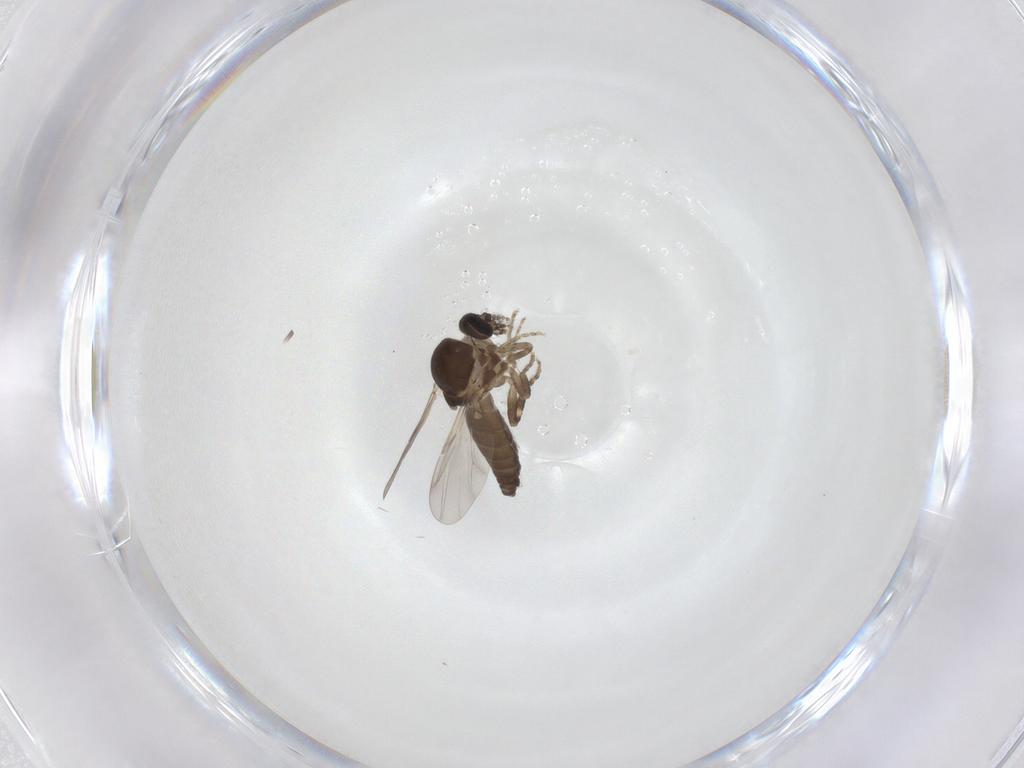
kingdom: Animalia
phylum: Arthropoda
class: Insecta
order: Diptera
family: Ceratopogonidae
